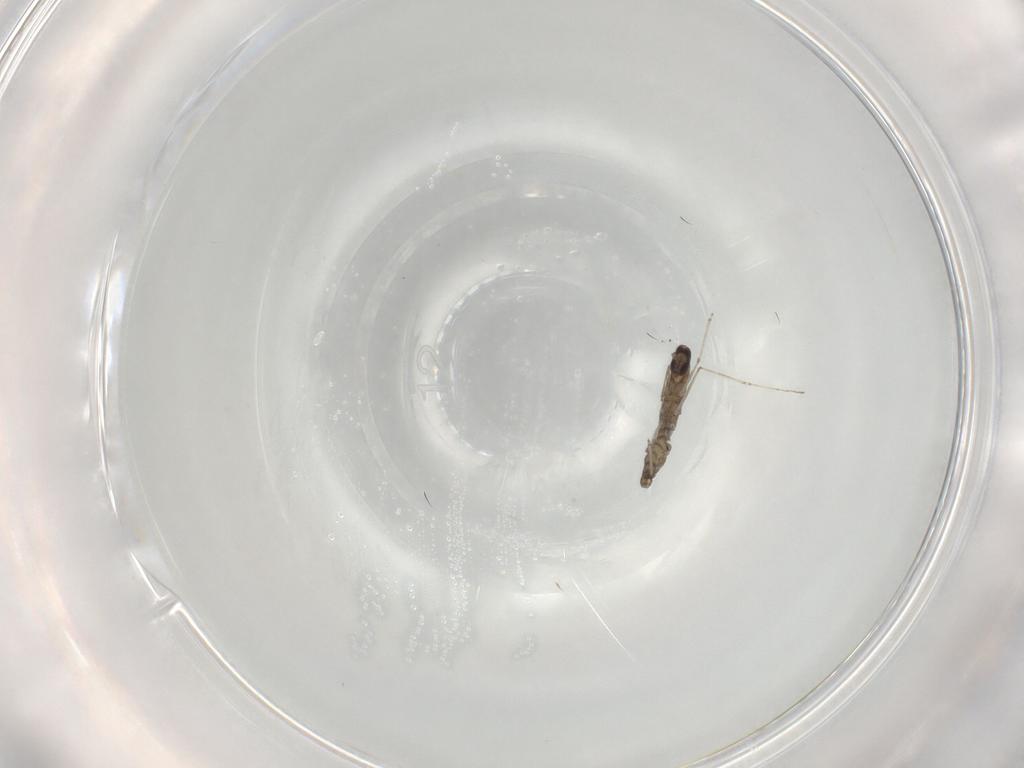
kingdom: Animalia
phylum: Arthropoda
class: Insecta
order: Diptera
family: Cecidomyiidae
